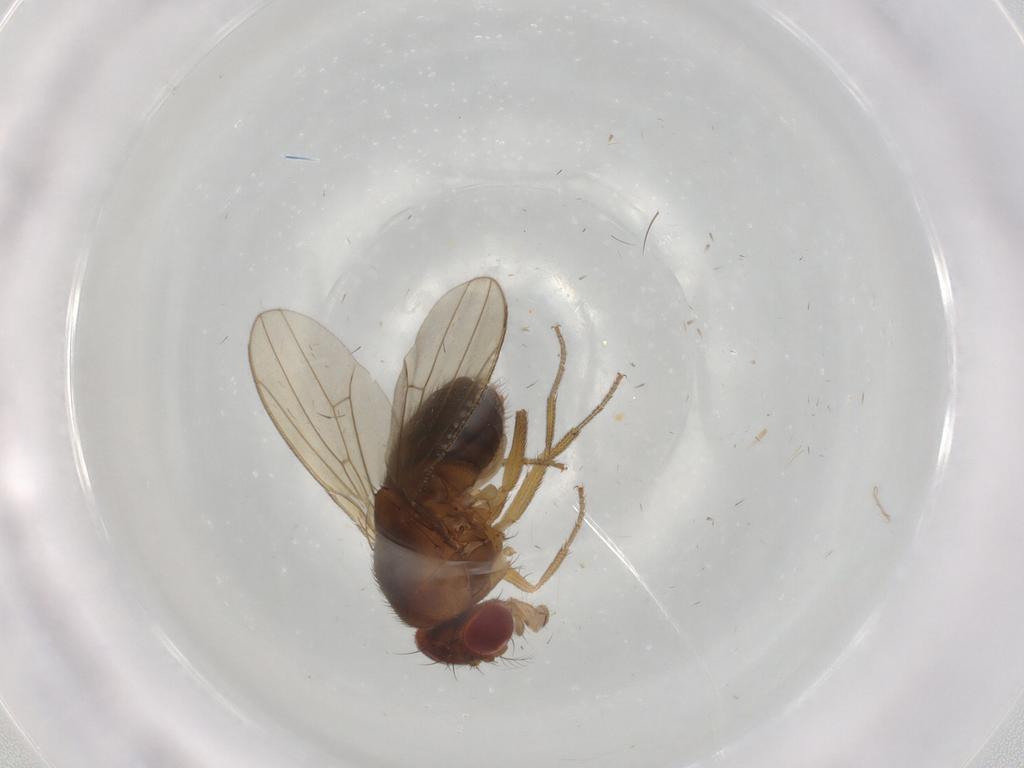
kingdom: Animalia
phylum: Arthropoda
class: Insecta
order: Diptera
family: Drosophilidae
